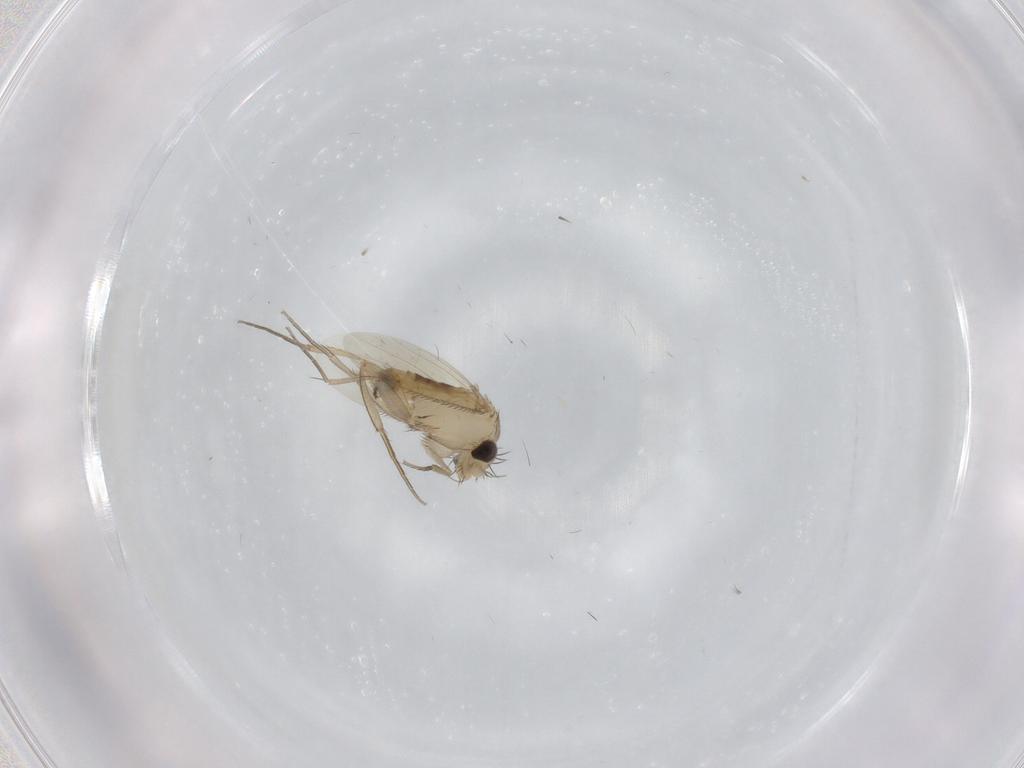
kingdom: Animalia
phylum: Arthropoda
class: Insecta
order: Diptera
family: Phoridae
